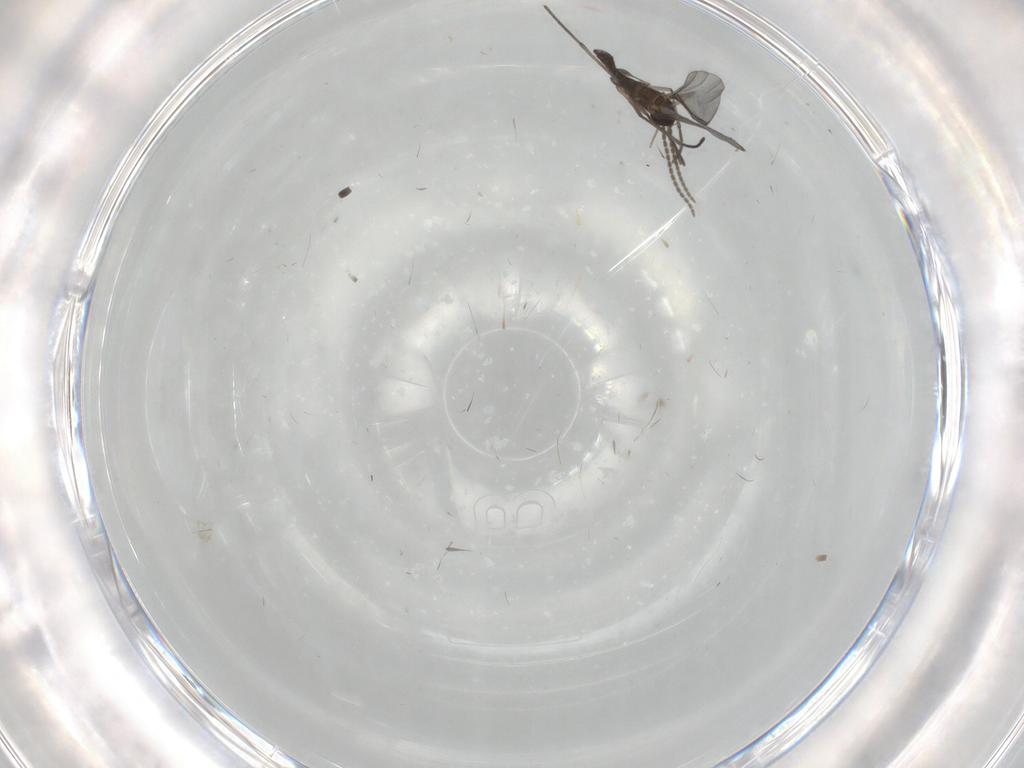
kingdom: Animalia
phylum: Arthropoda
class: Insecta
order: Diptera
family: Chironomidae
